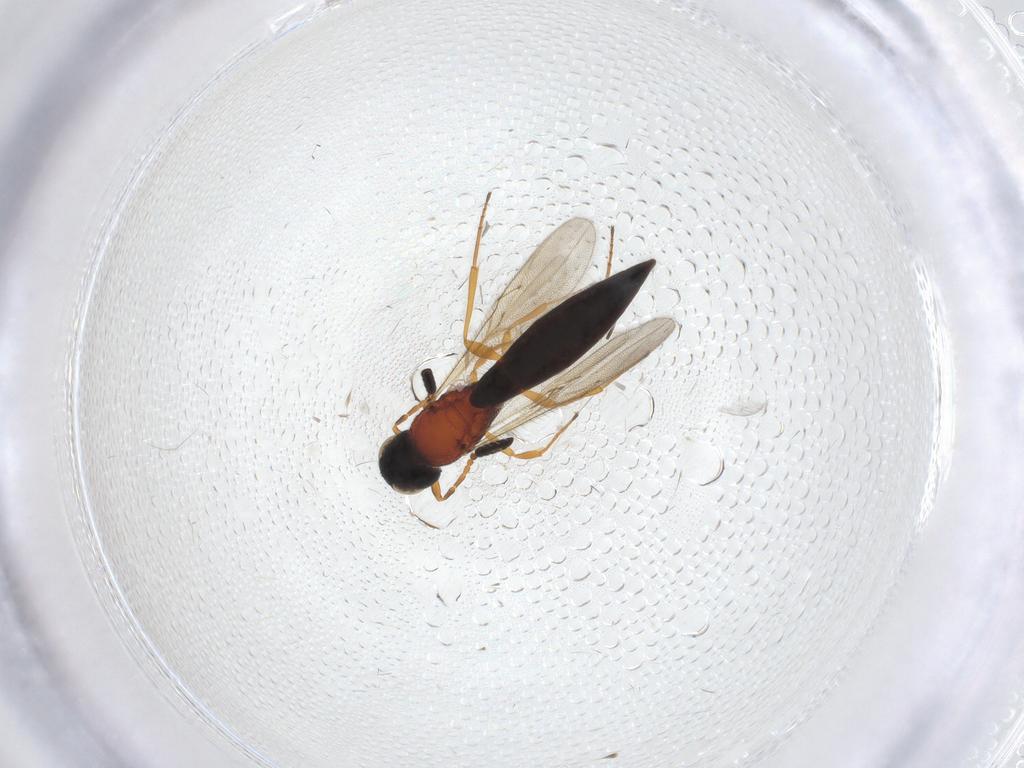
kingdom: Animalia
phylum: Arthropoda
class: Insecta
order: Hymenoptera
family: Scelionidae
